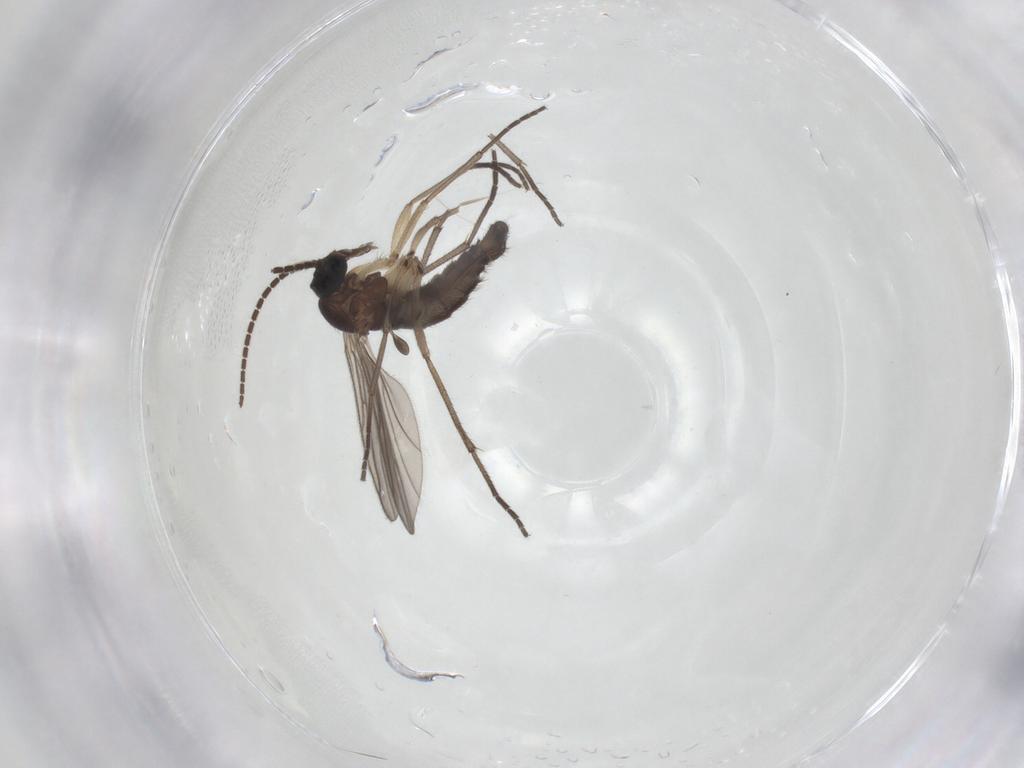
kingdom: Animalia
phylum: Arthropoda
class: Insecta
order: Diptera
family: Sciaridae
